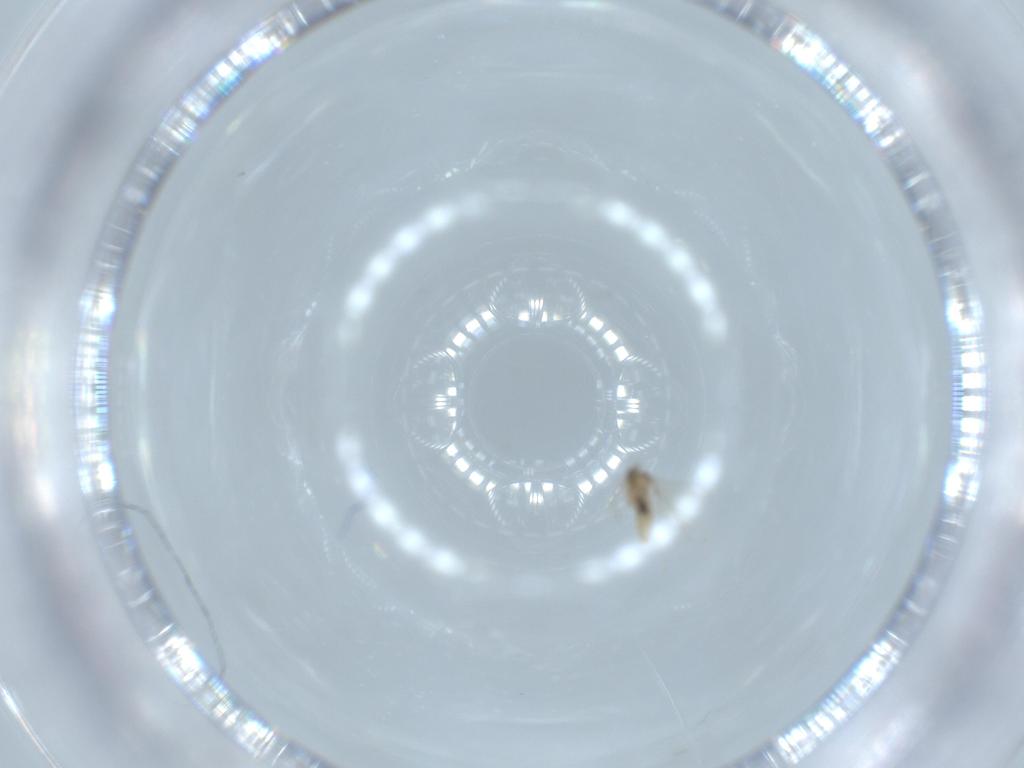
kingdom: Animalia
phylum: Arthropoda
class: Insecta
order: Diptera
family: Cecidomyiidae
